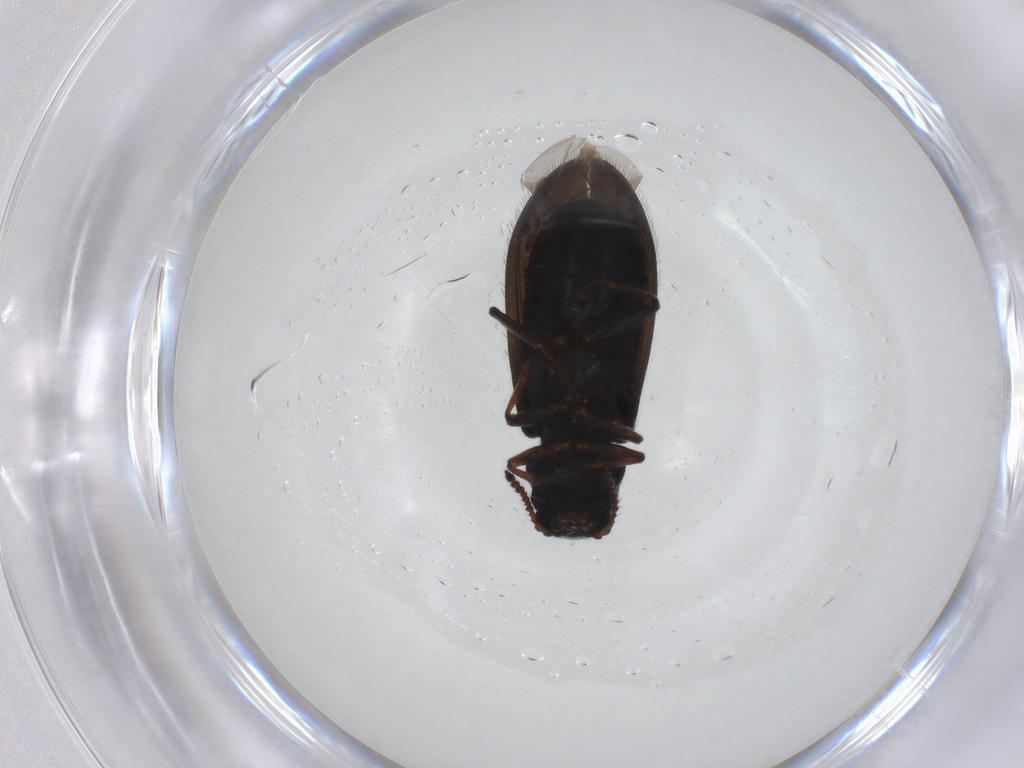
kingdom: Animalia
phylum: Arthropoda
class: Insecta
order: Coleoptera
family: Melyridae
